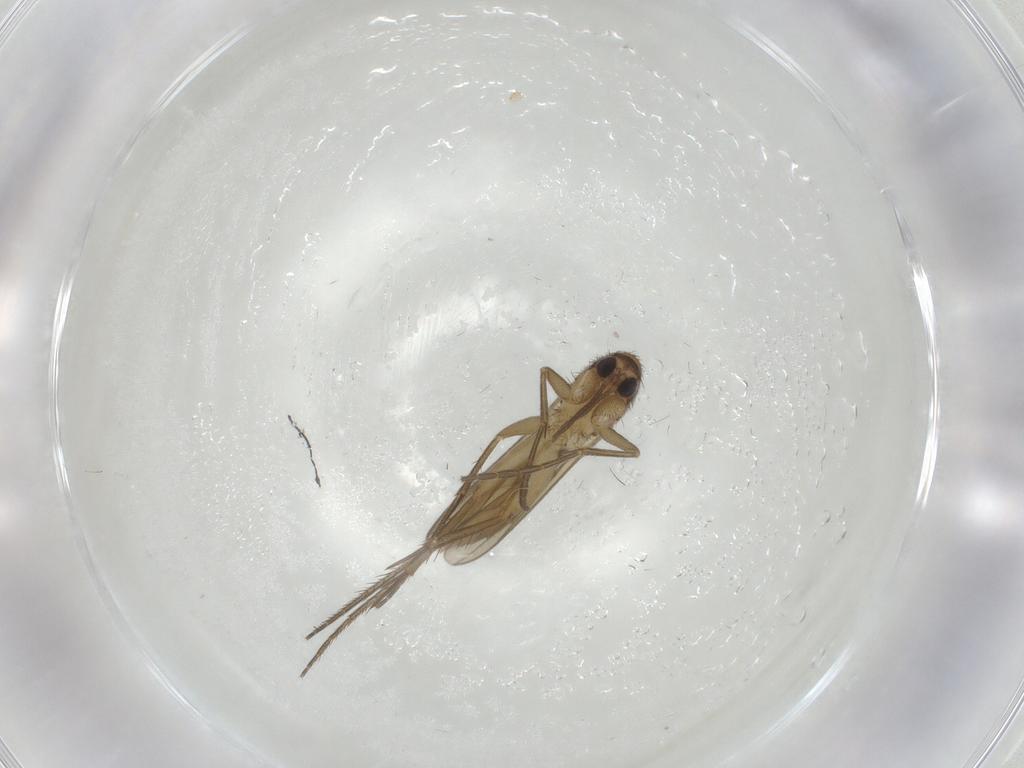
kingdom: Animalia
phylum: Arthropoda
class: Insecta
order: Diptera
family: Mycetophilidae
